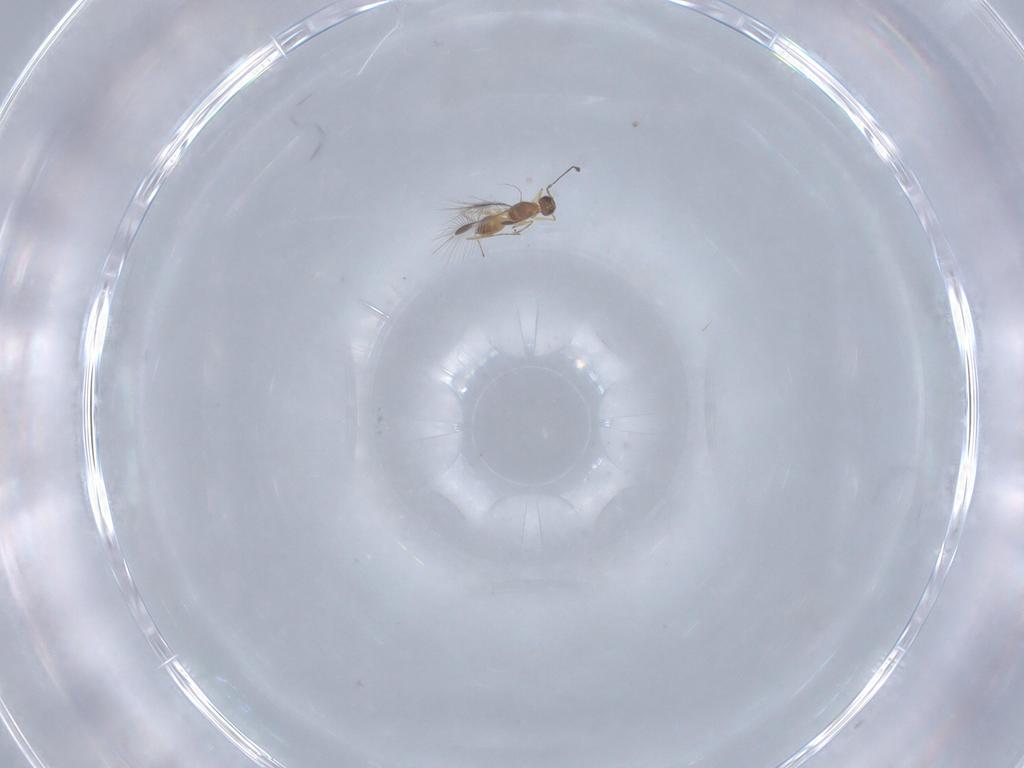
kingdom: Animalia
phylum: Arthropoda
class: Insecta
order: Hymenoptera
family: Mymaridae
